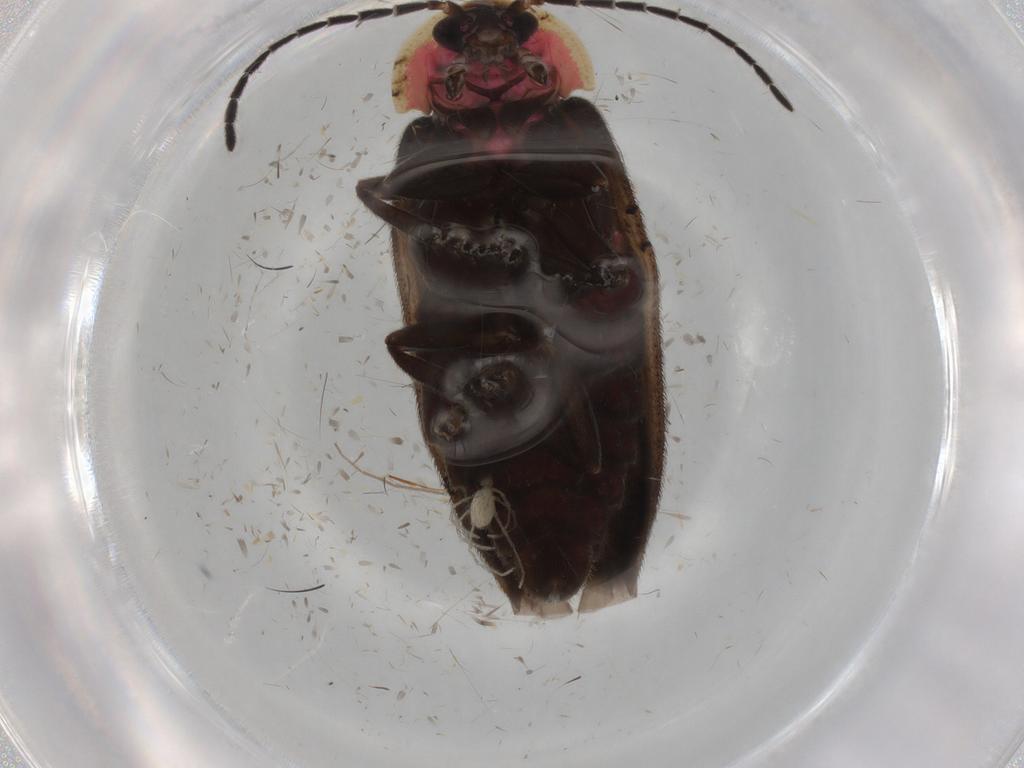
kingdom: Animalia
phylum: Arthropoda
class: Insecta
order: Coleoptera
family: Lampyridae
